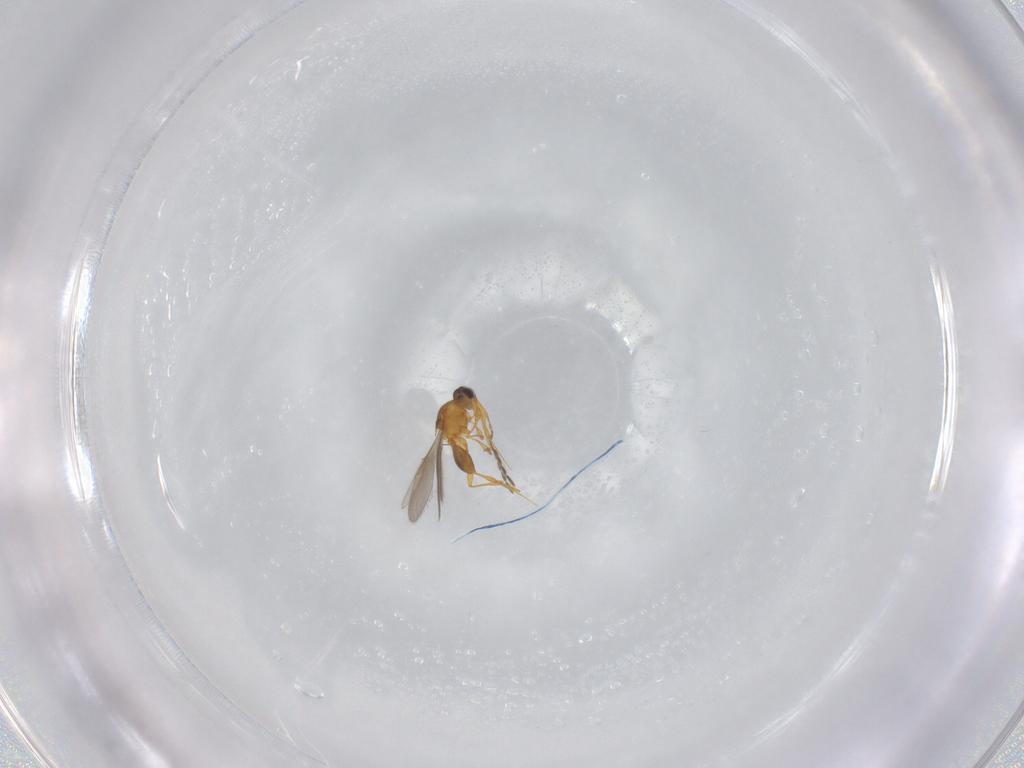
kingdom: Animalia
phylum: Arthropoda
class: Insecta
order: Hymenoptera
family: Platygastridae
